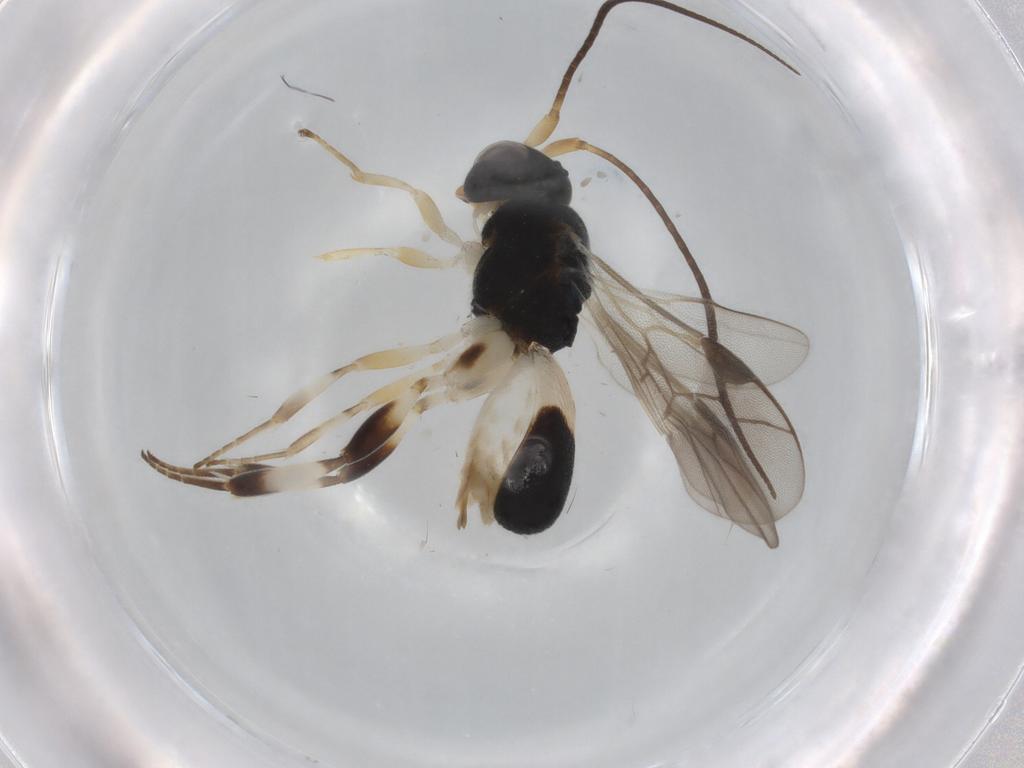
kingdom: Animalia
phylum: Arthropoda
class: Insecta
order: Hymenoptera
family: Braconidae
